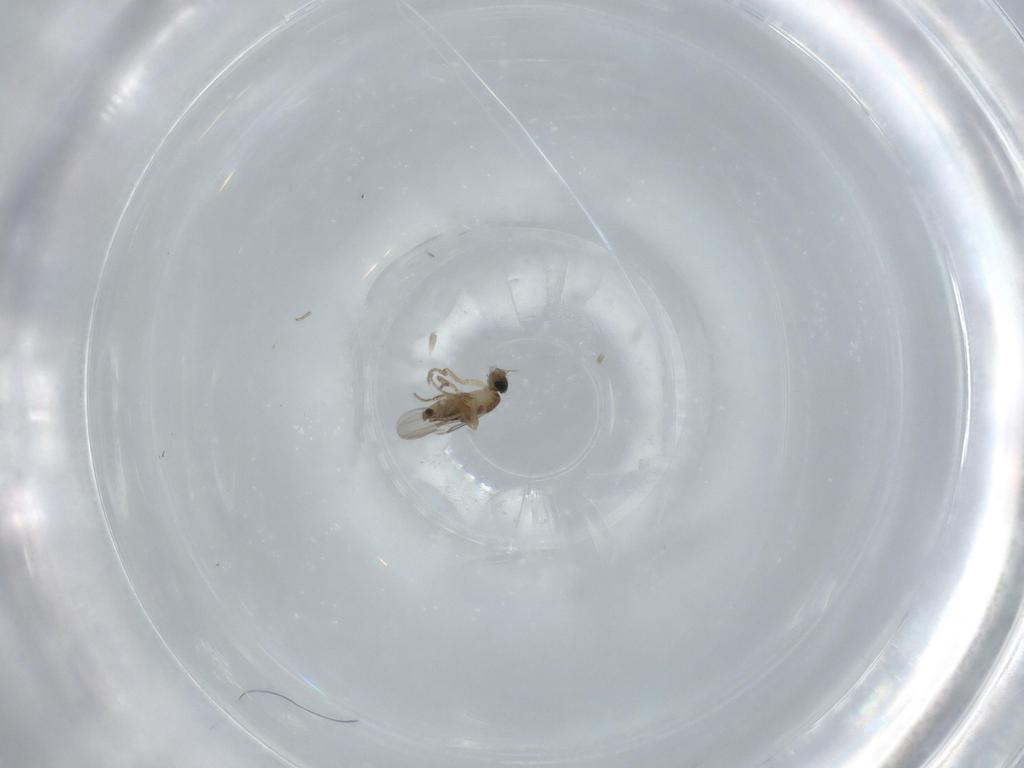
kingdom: Animalia
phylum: Arthropoda
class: Insecta
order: Diptera
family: Phoridae
